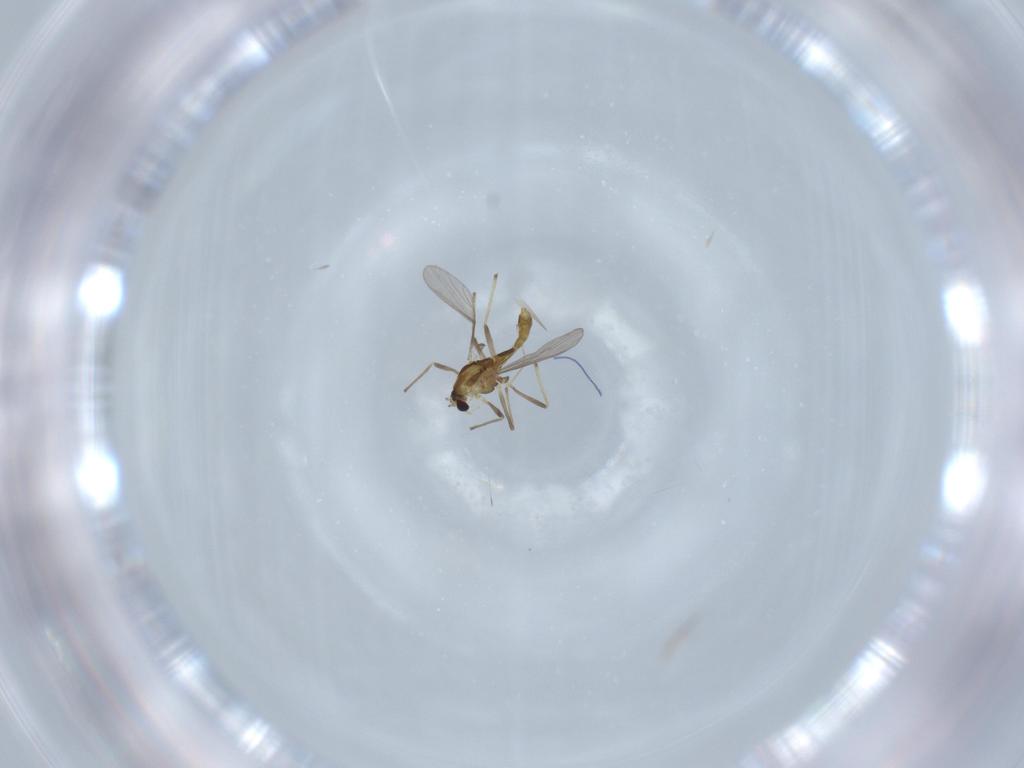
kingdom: Animalia
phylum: Arthropoda
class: Insecta
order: Diptera
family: Chironomidae
